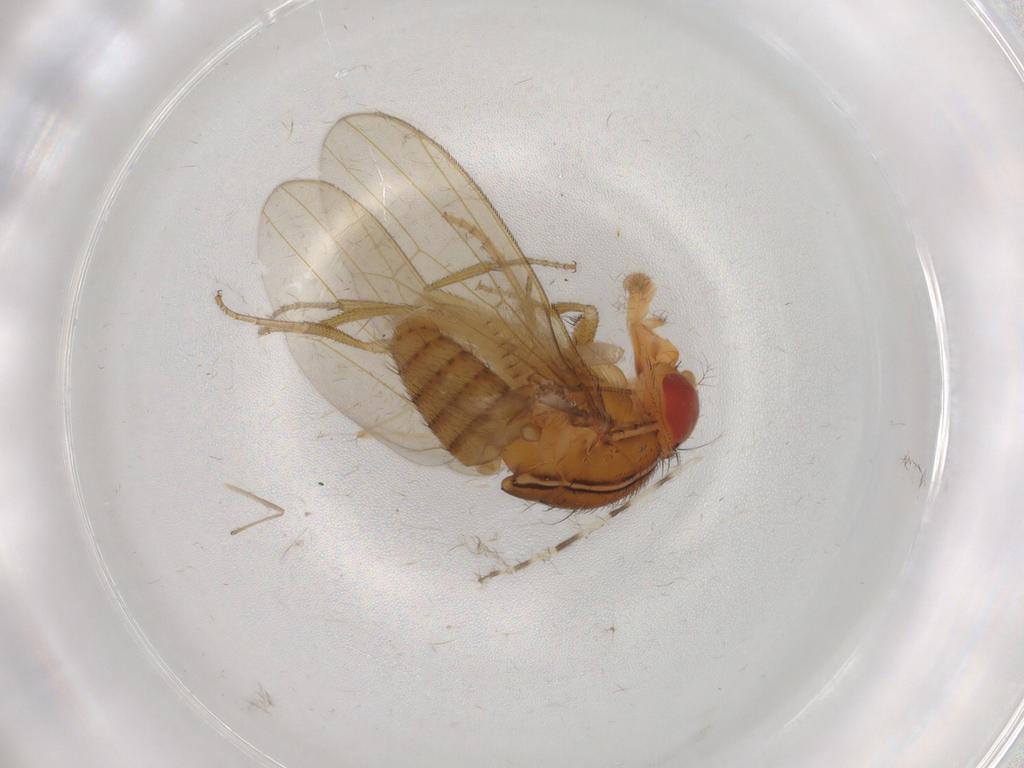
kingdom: Animalia
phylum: Arthropoda
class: Insecta
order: Diptera
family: Drosophilidae
